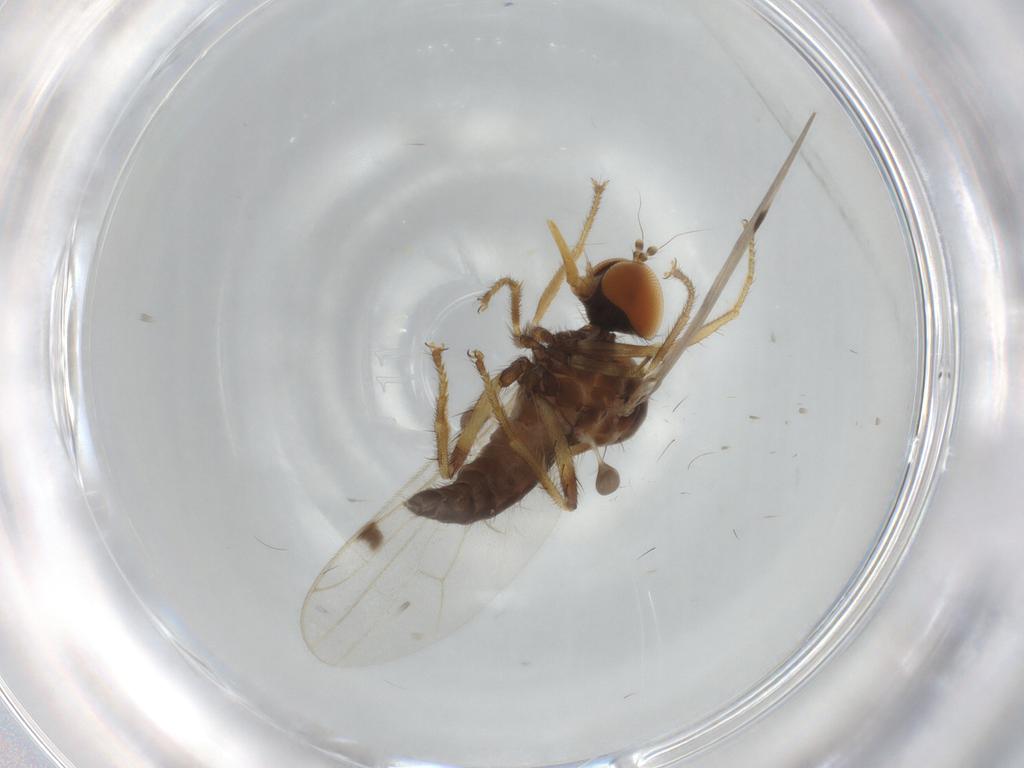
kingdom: Animalia
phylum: Arthropoda
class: Insecta
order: Diptera
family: Hybotidae
